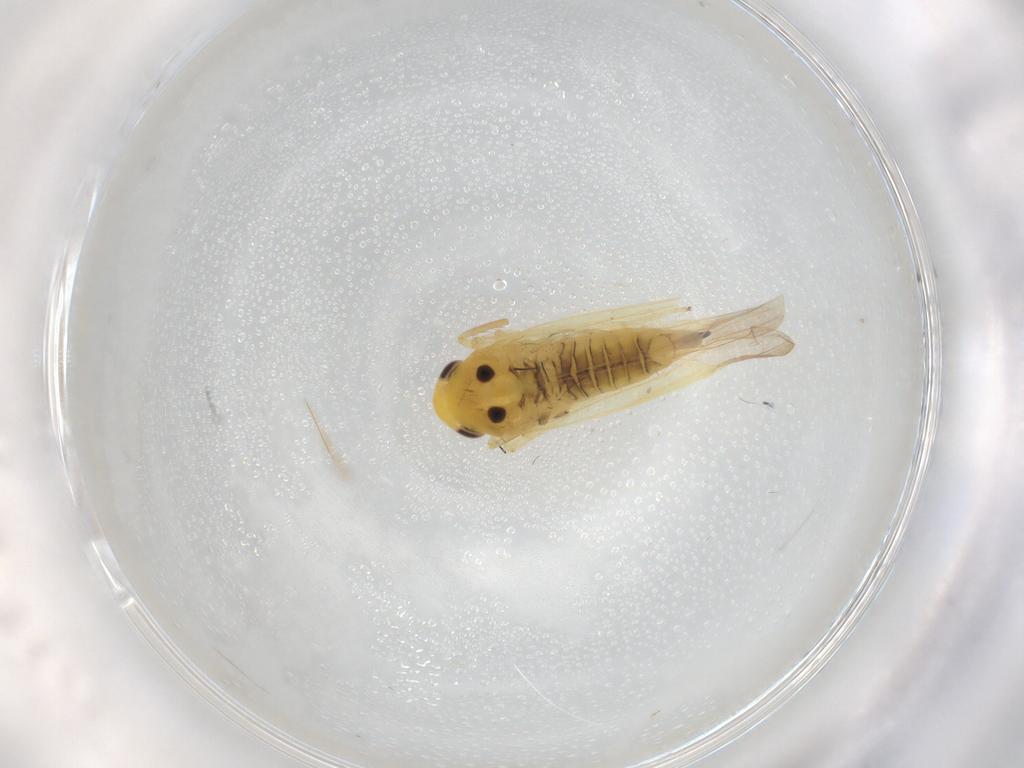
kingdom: Animalia
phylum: Arthropoda
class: Insecta
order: Hemiptera
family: Cicadellidae
